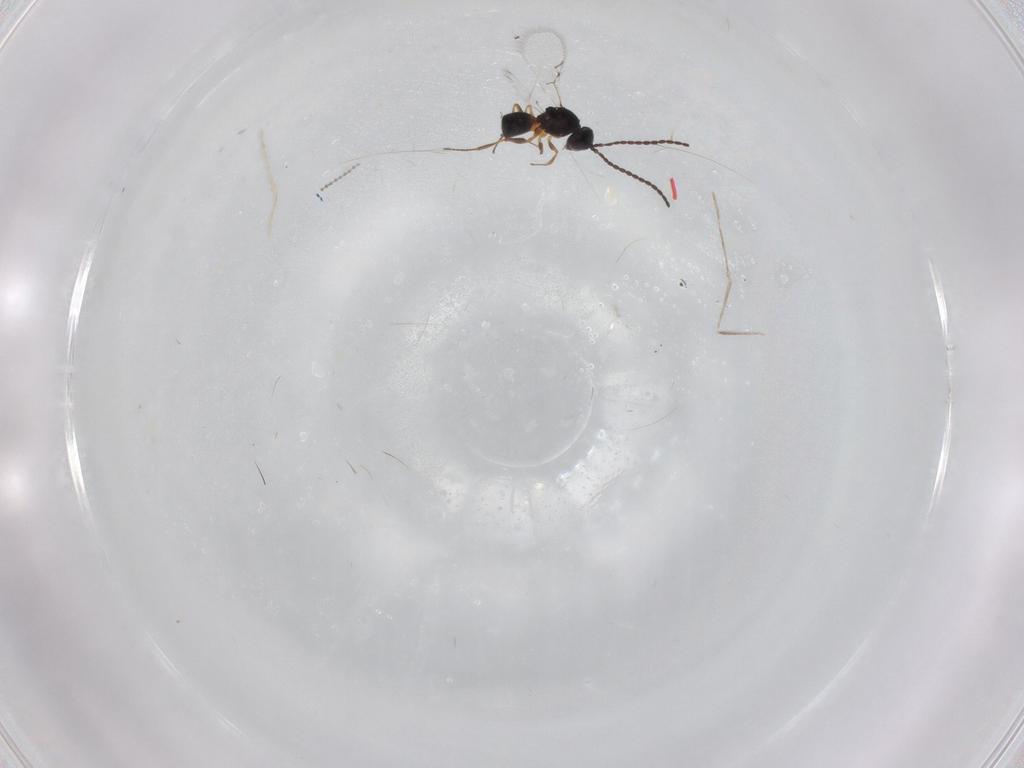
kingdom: Animalia
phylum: Arthropoda
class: Insecta
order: Hymenoptera
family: Figitidae
